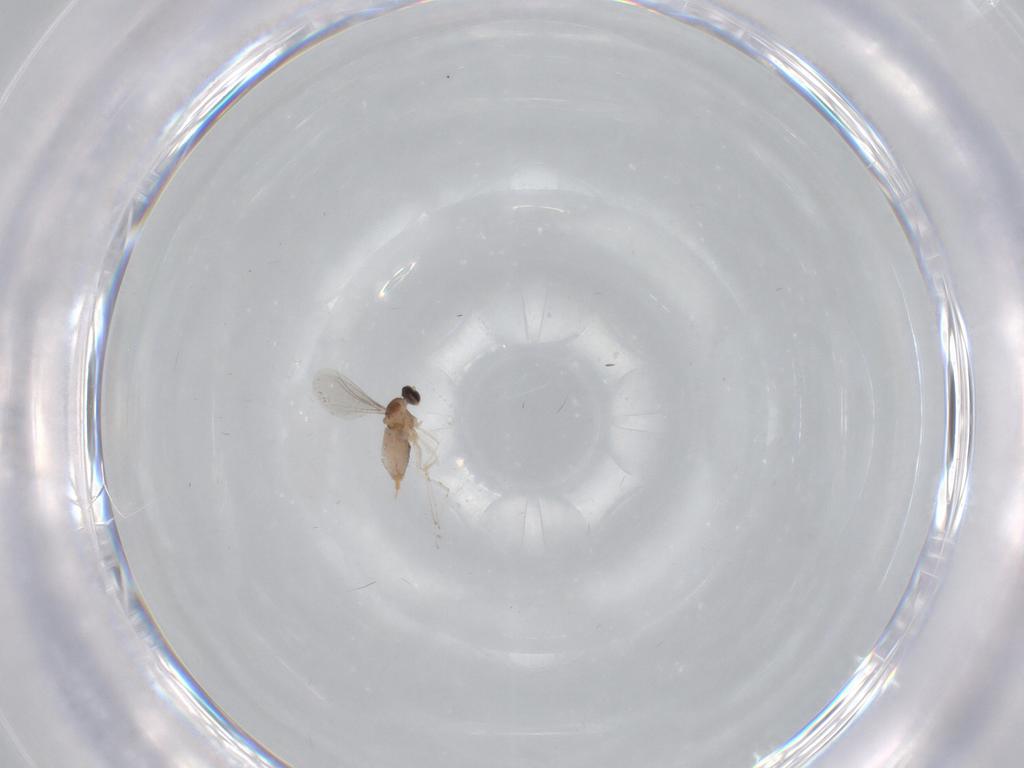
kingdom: Animalia
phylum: Arthropoda
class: Insecta
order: Diptera
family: Cecidomyiidae
